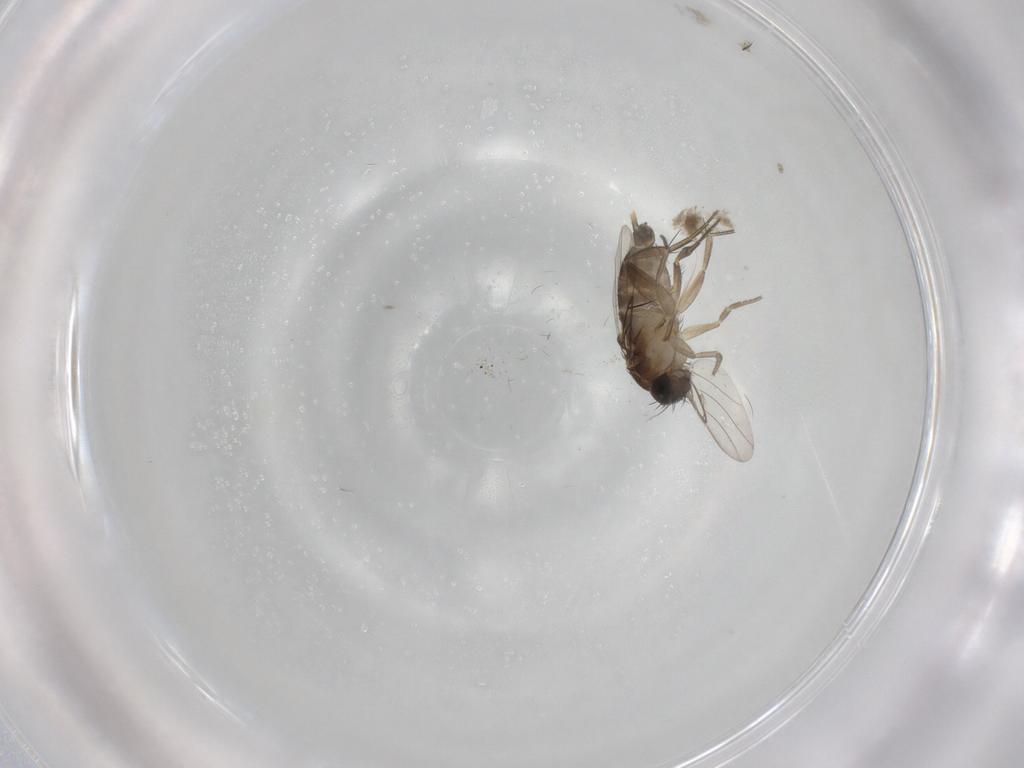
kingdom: Animalia
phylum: Arthropoda
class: Insecta
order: Diptera
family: Phoridae
